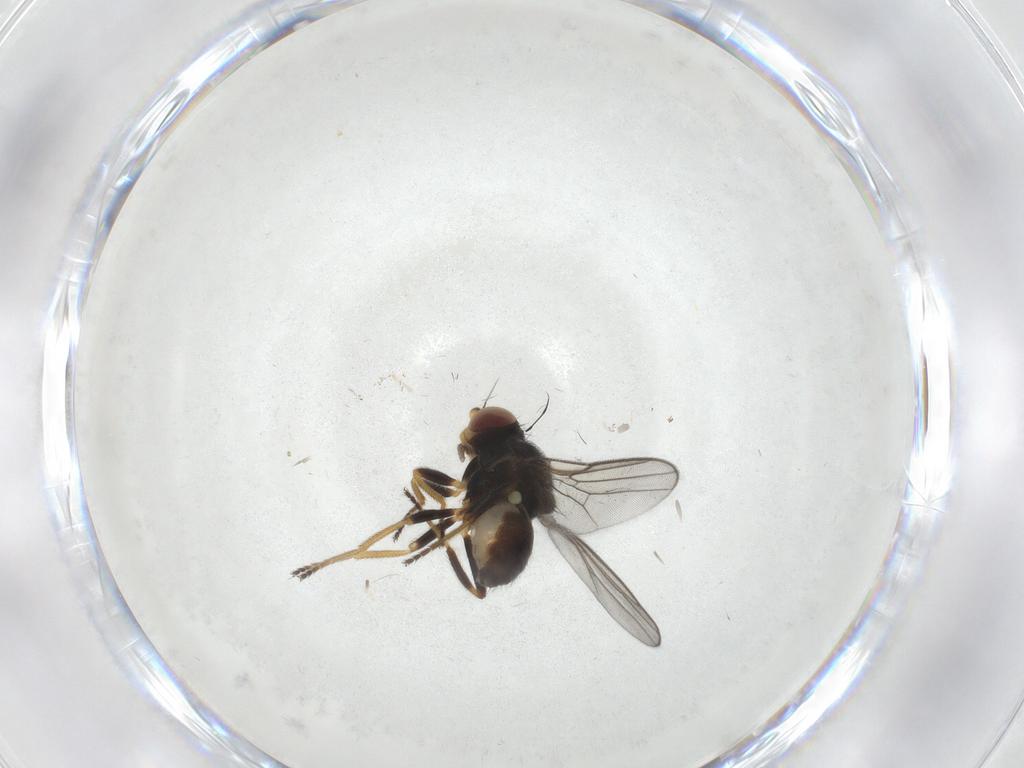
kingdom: Animalia
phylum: Arthropoda
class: Insecta
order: Diptera
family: Chloropidae
